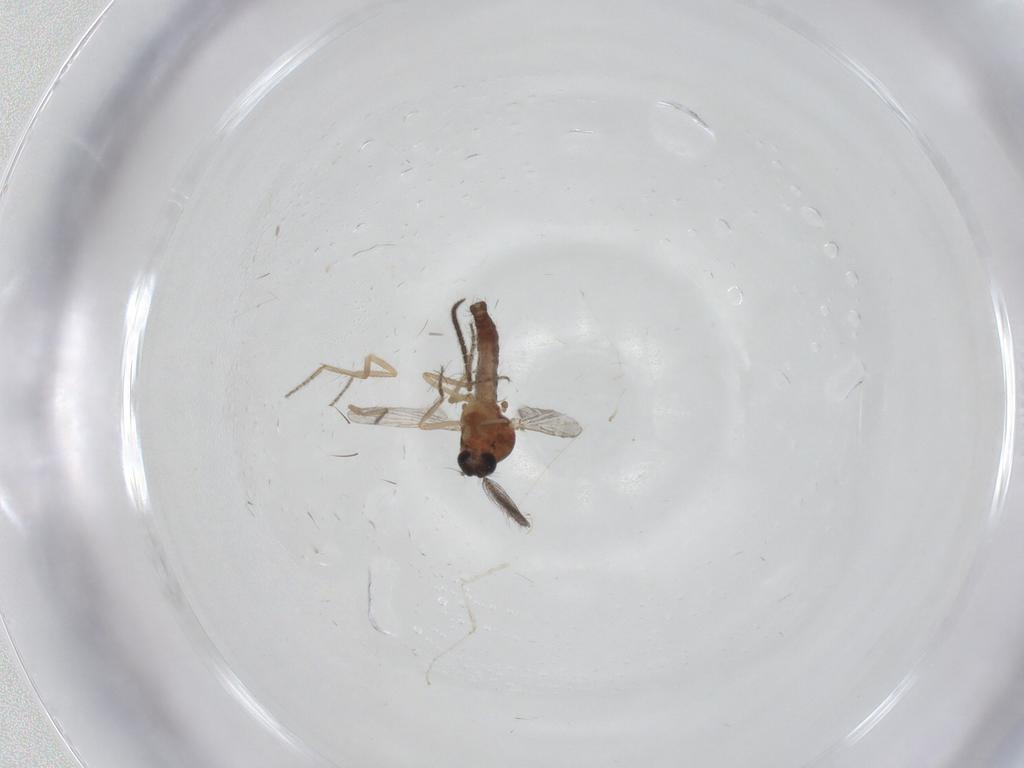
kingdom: Animalia
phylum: Arthropoda
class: Insecta
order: Diptera
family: Ceratopogonidae
